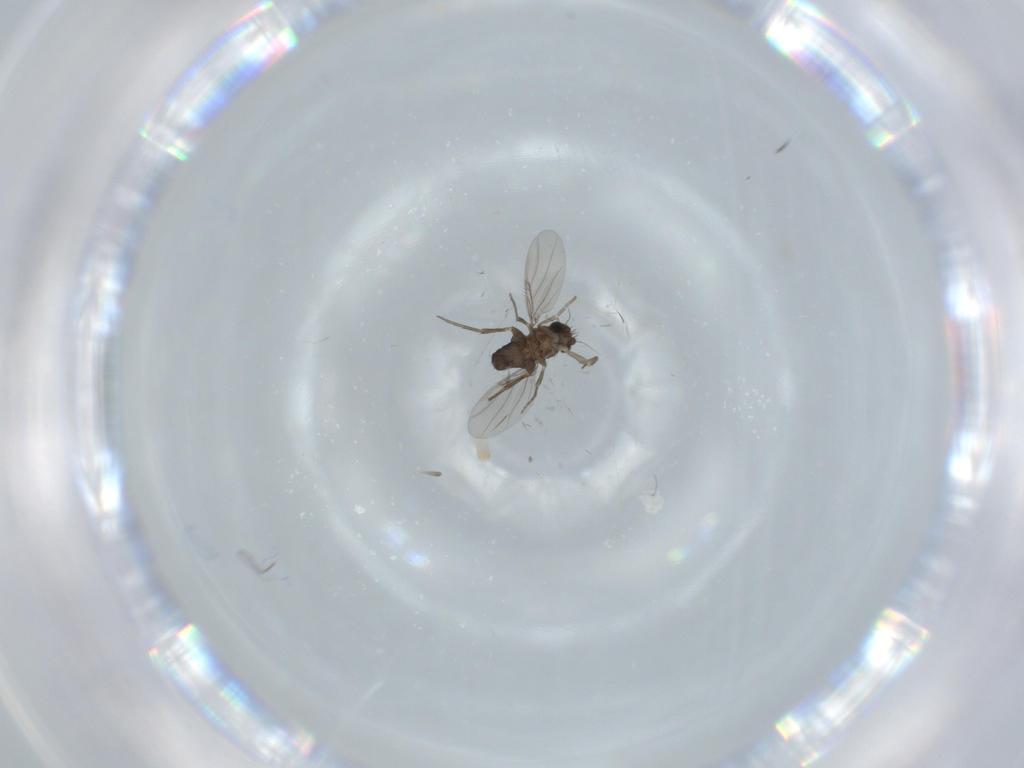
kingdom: Animalia
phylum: Arthropoda
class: Insecta
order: Diptera
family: Phoridae
